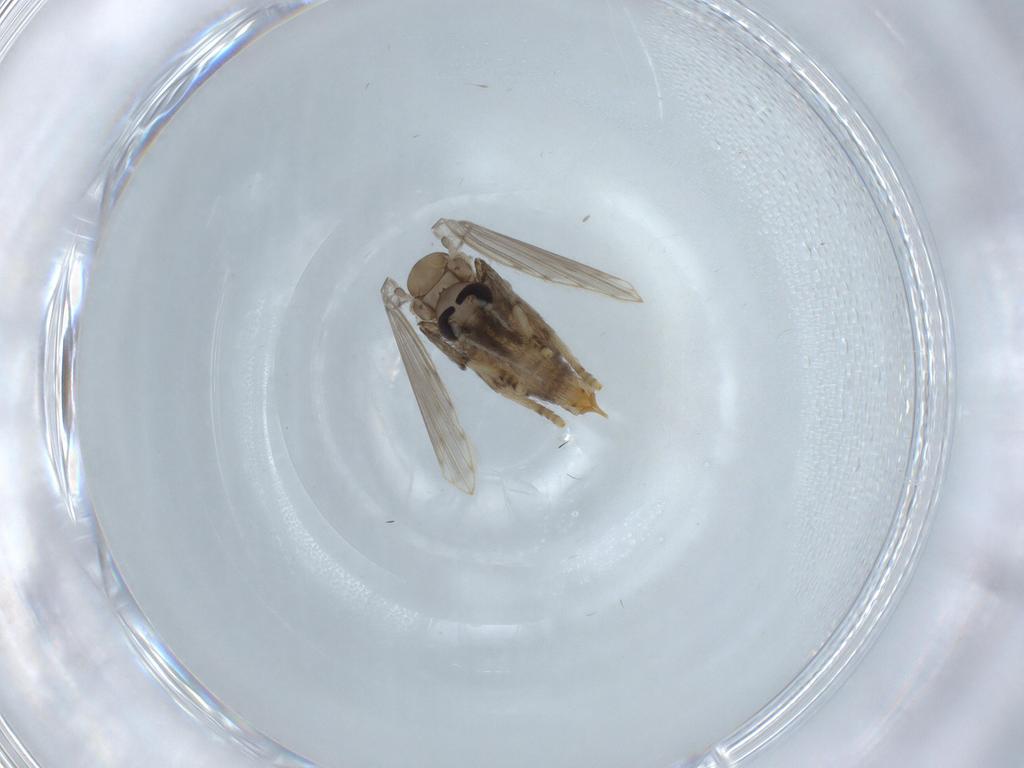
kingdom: Animalia
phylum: Arthropoda
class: Insecta
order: Diptera
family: Psychodidae
